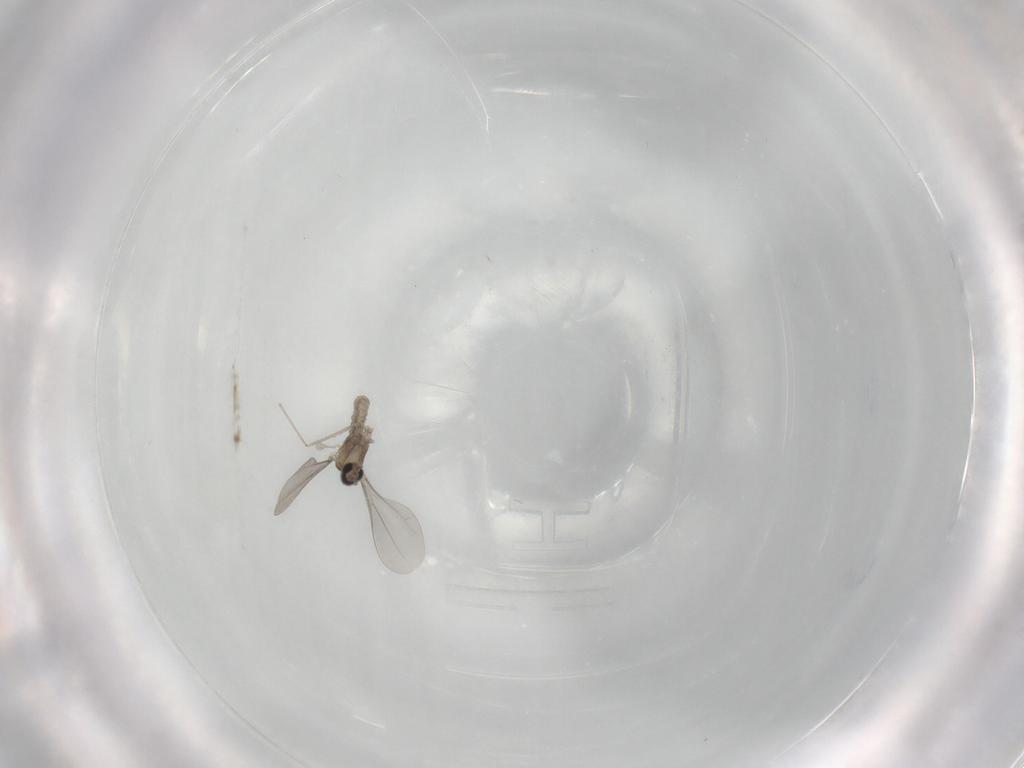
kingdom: Animalia
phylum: Arthropoda
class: Insecta
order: Diptera
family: Cecidomyiidae
